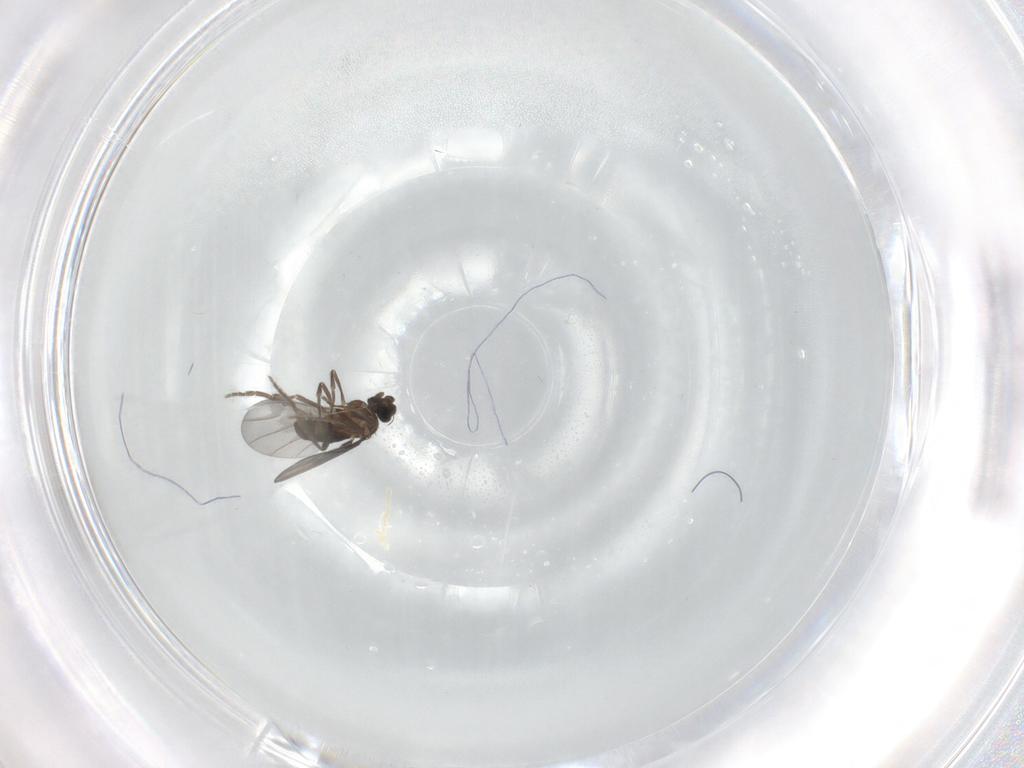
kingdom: Animalia
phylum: Arthropoda
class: Insecta
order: Diptera
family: Phoridae
